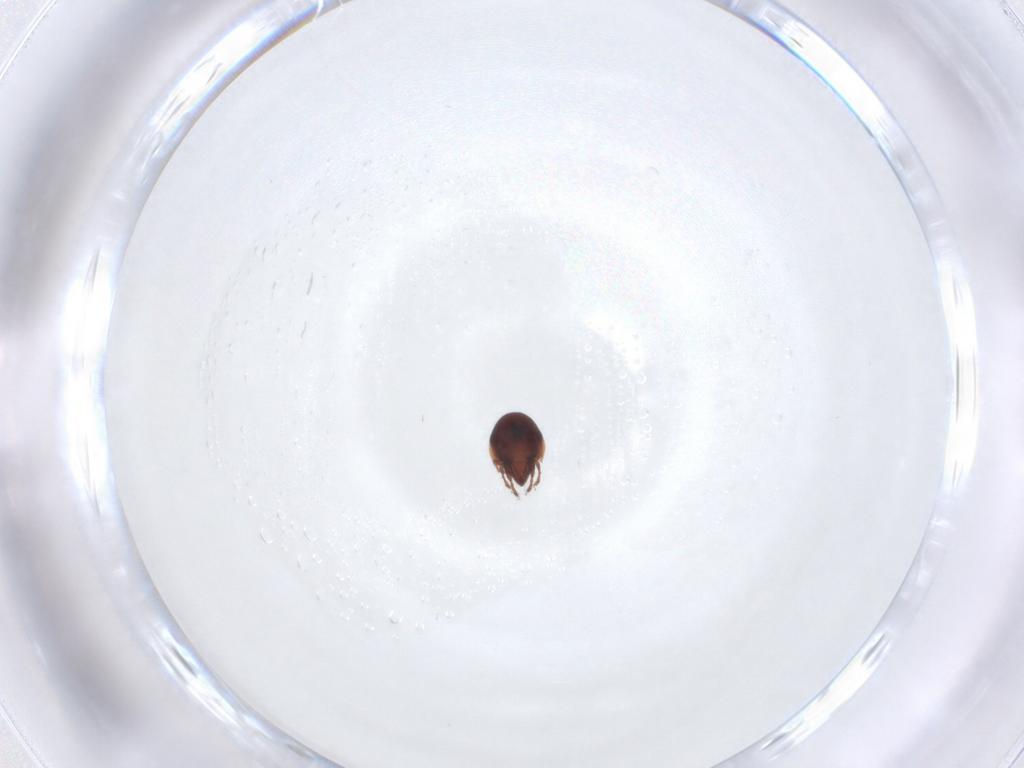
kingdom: Animalia
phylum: Arthropoda
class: Arachnida
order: Sarcoptiformes
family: Ceratozetidae
